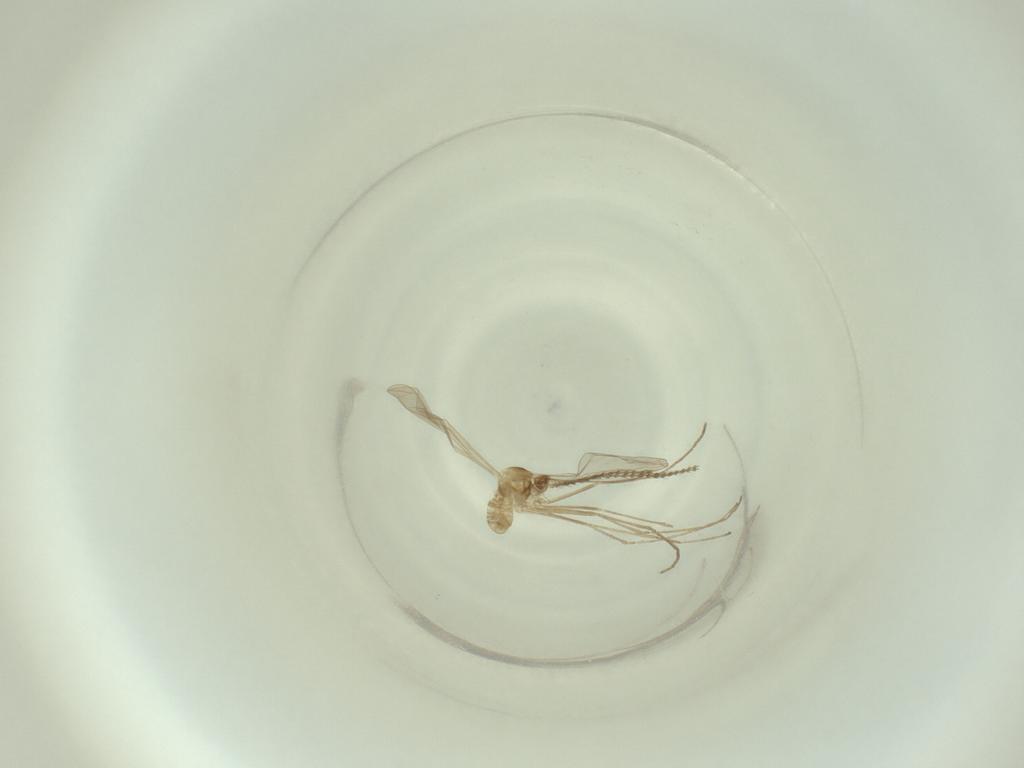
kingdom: Animalia
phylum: Arthropoda
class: Insecta
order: Diptera
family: Cecidomyiidae
